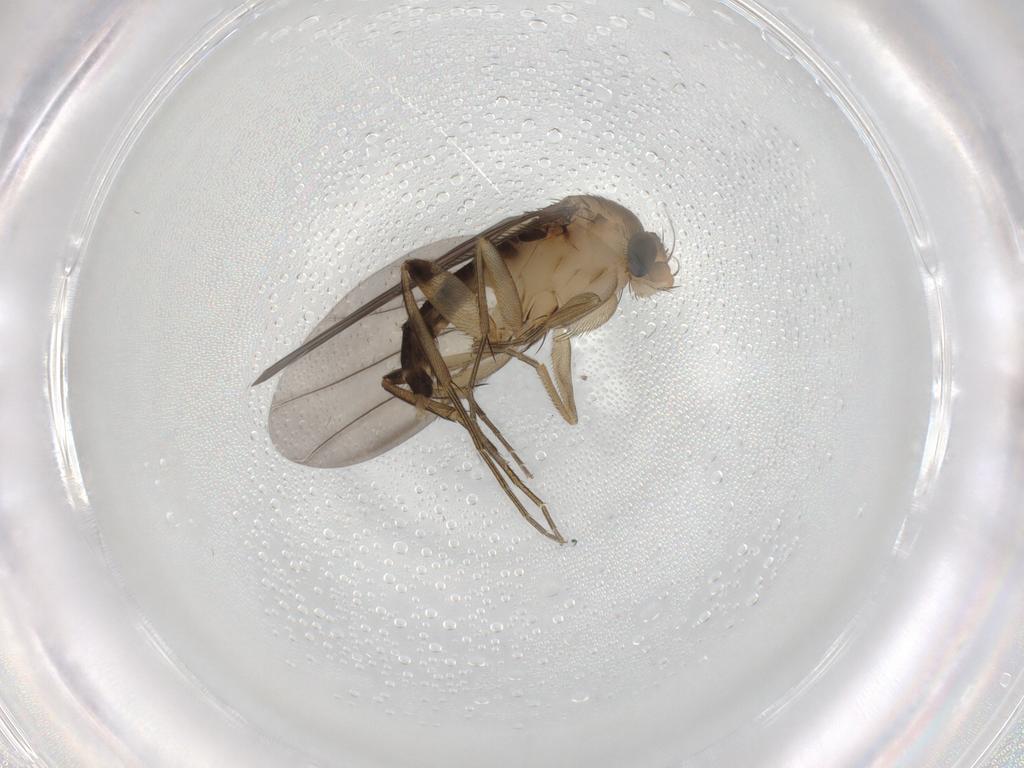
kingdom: Animalia
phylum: Arthropoda
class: Insecta
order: Diptera
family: Phoridae
